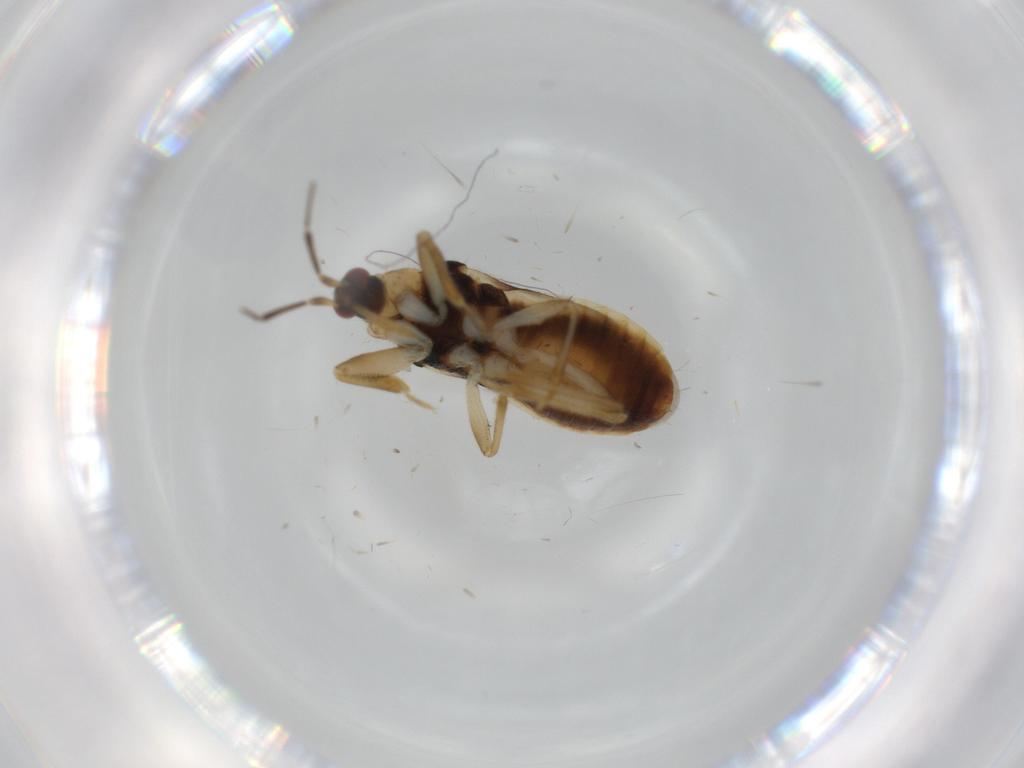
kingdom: Animalia
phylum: Arthropoda
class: Insecta
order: Hemiptera
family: Nabidae
